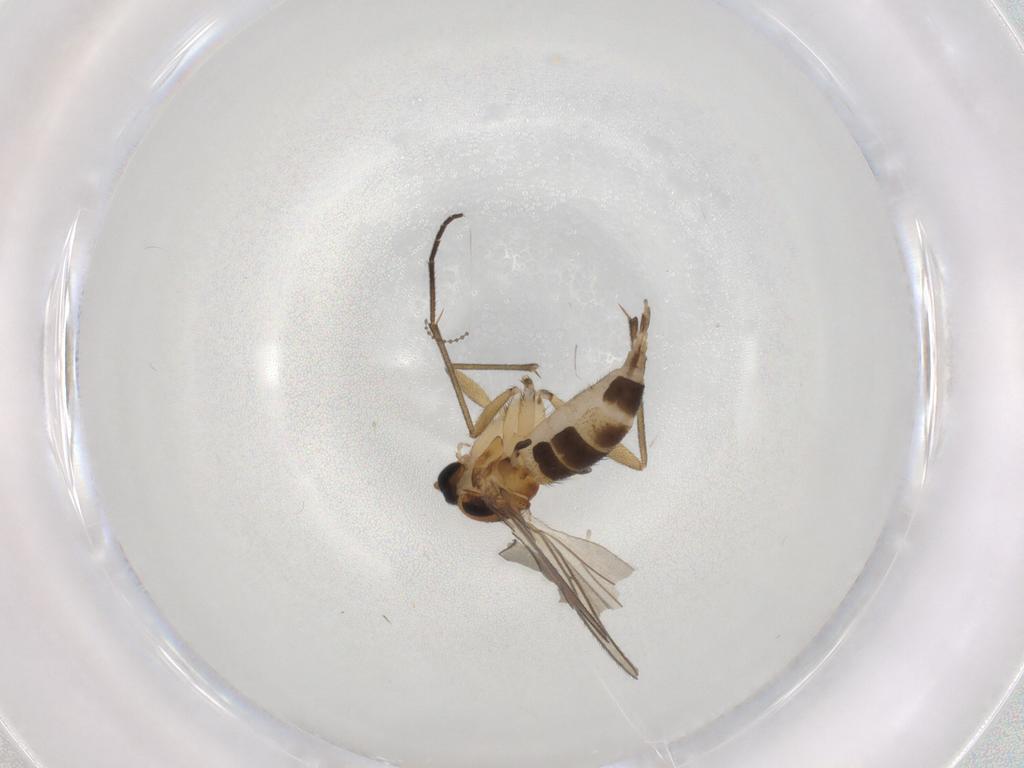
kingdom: Animalia
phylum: Arthropoda
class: Insecta
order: Diptera
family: Sciaridae
